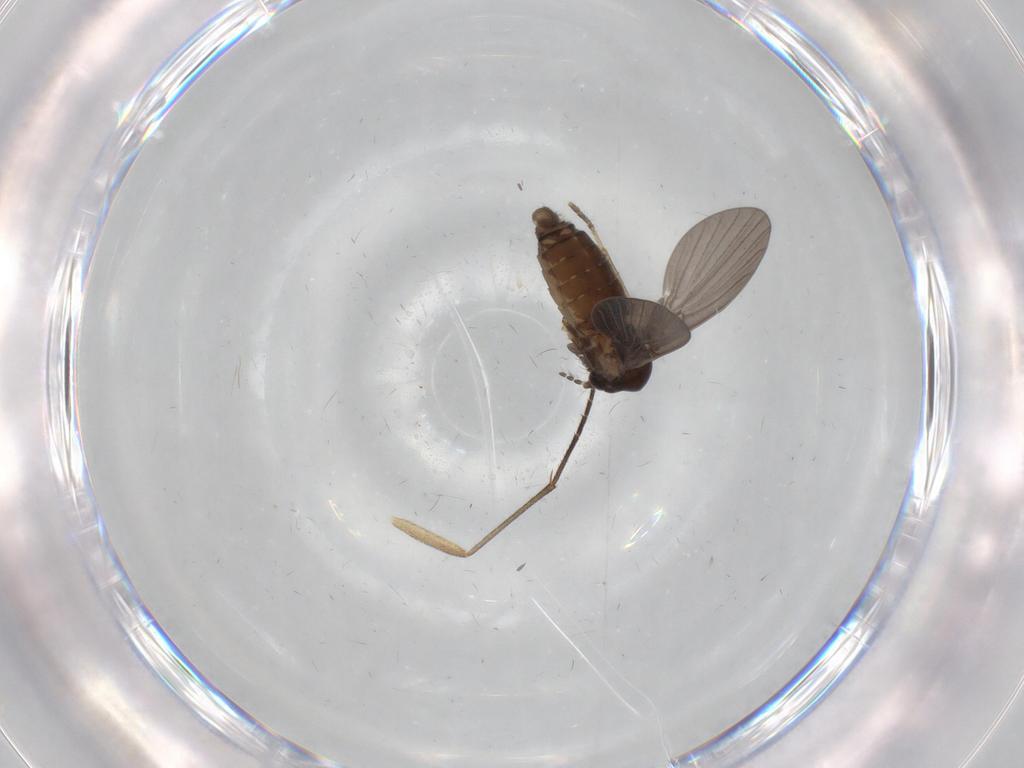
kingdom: Animalia
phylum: Arthropoda
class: Insecta
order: Diptera
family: Psychodidae
